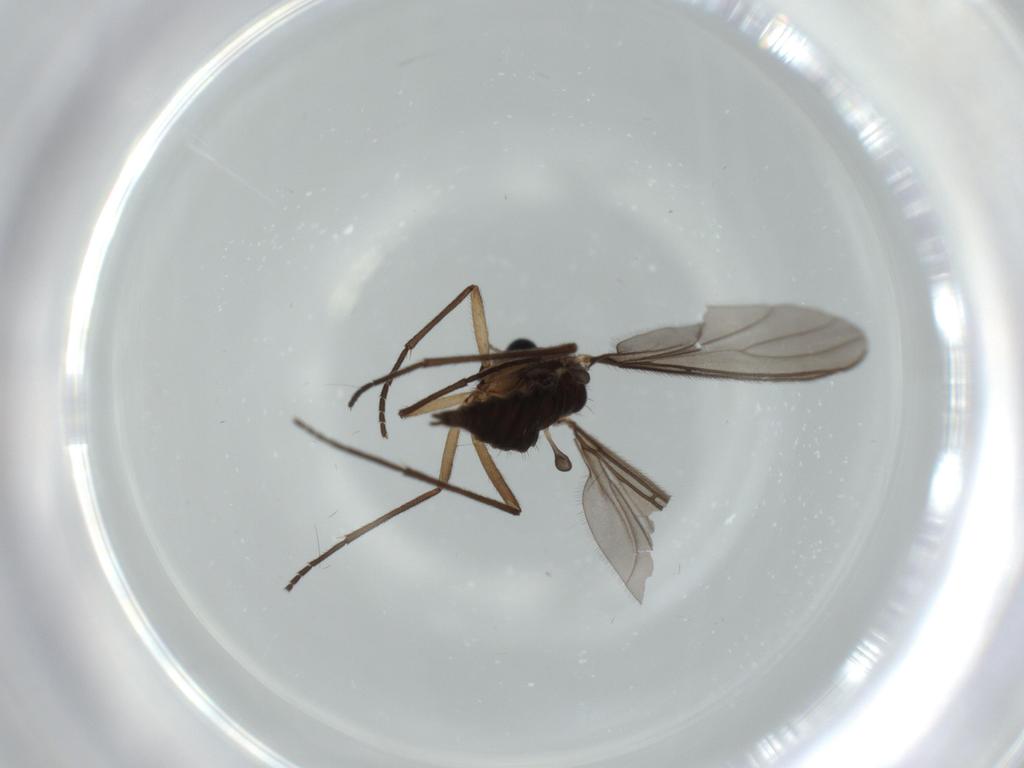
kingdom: Animalia
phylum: Arthropoda
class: Insecta
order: Diptera
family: Sciaridae
